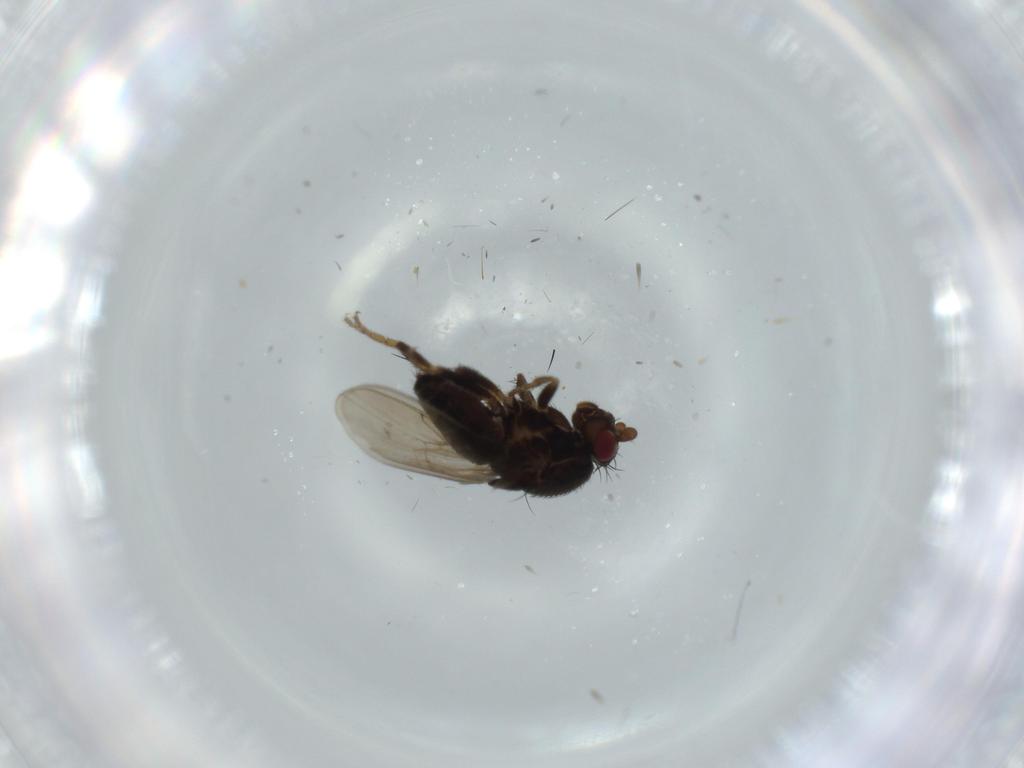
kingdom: Animalia
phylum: Arthropoda
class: Insecta
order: Diptera
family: Sphaeroceridae
